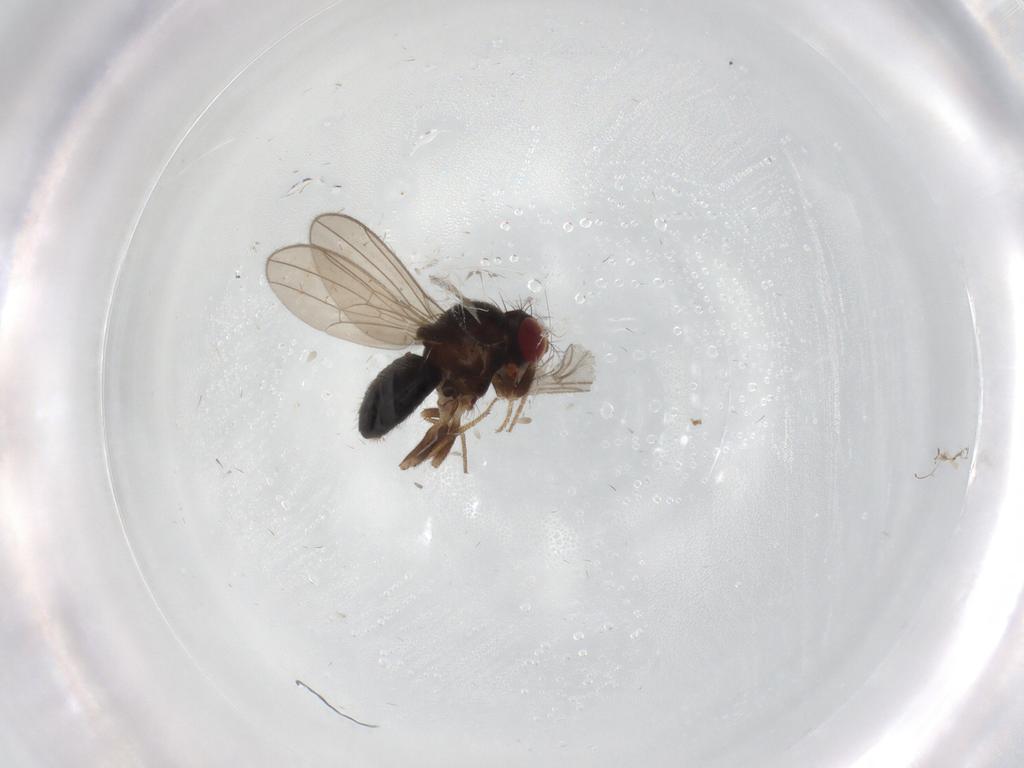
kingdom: Animalia
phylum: Arthropoda
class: Insecta
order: Diptera
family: Drosophilidae
